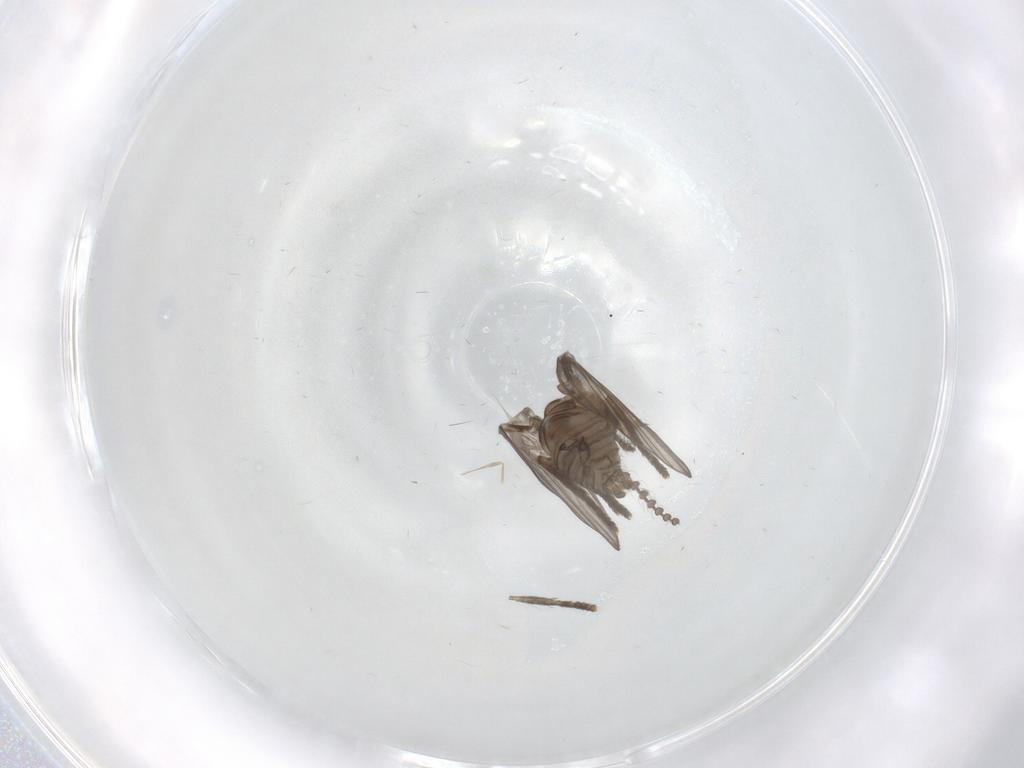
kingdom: Animalia
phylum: Arthropoda
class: Insecta
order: Diptera
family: Psychodidae
